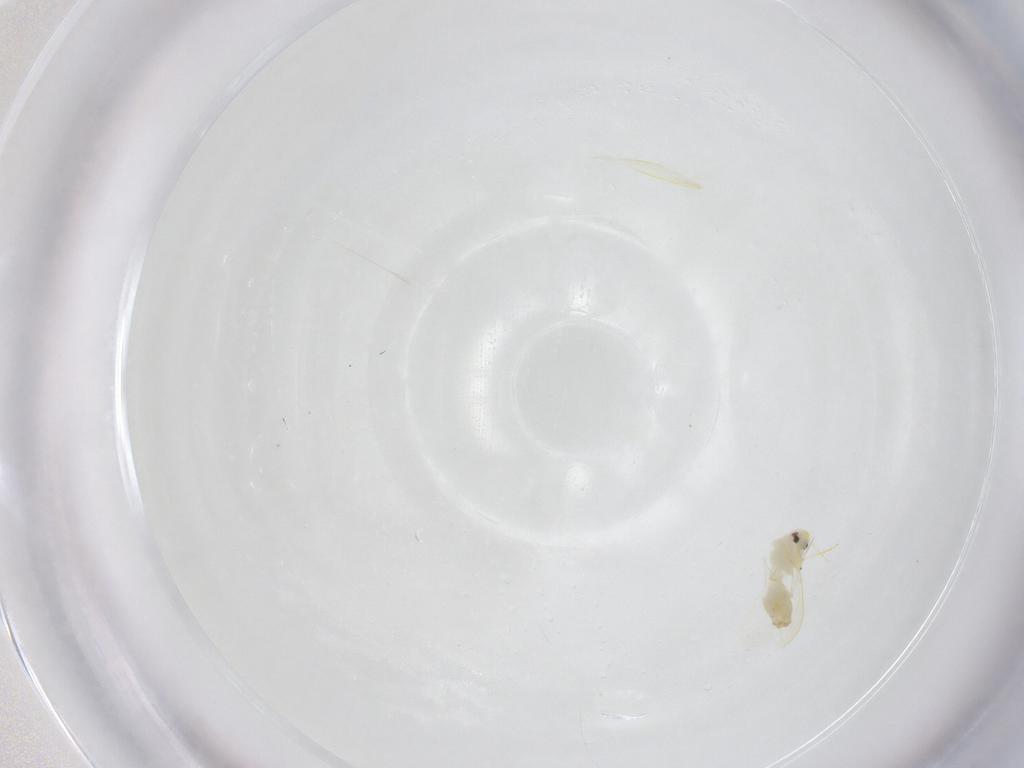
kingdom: Animalia
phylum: Arthropoda
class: Insecta
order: Hemiptera
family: Aleyrodidae
